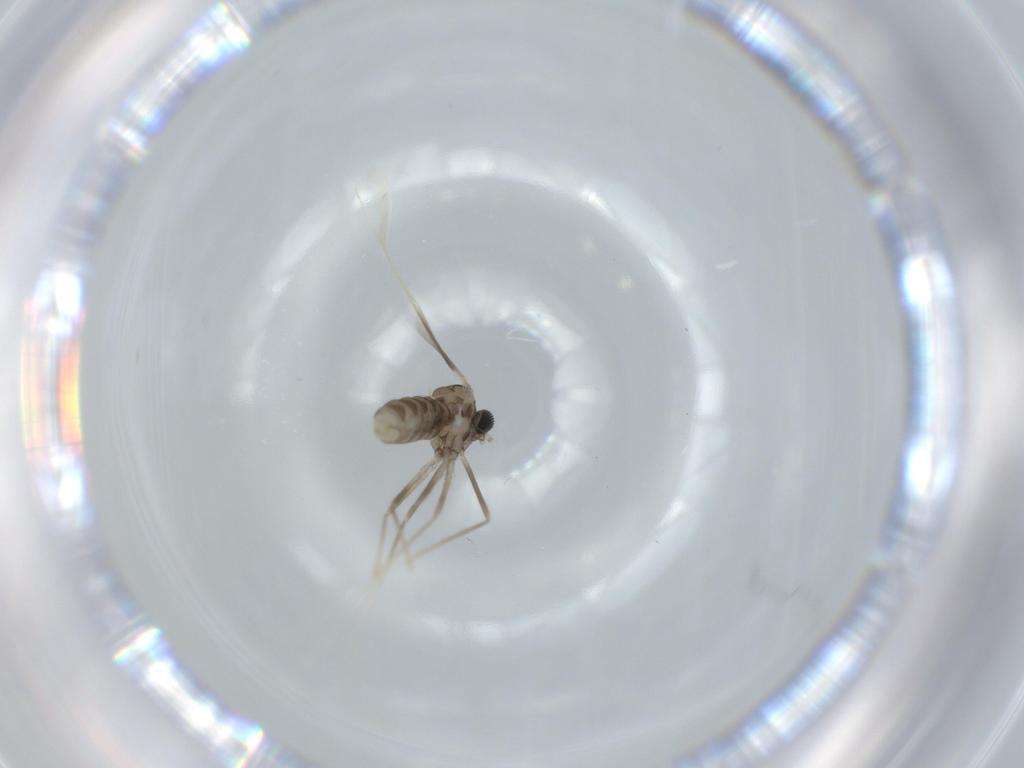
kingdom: Animalia
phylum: Arthropoda
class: Insecta
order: Diptera
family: Cecidomyiidae
